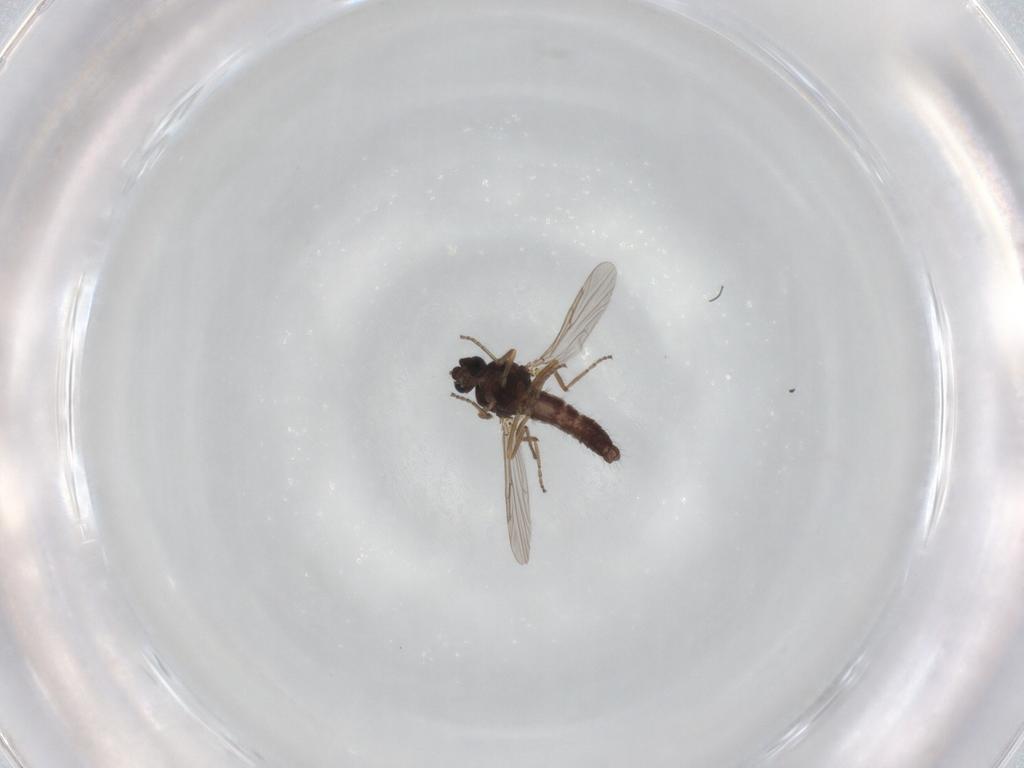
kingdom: Animalia
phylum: Arthropoda
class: Insecta
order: Diptera
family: Ceratopogonidae
